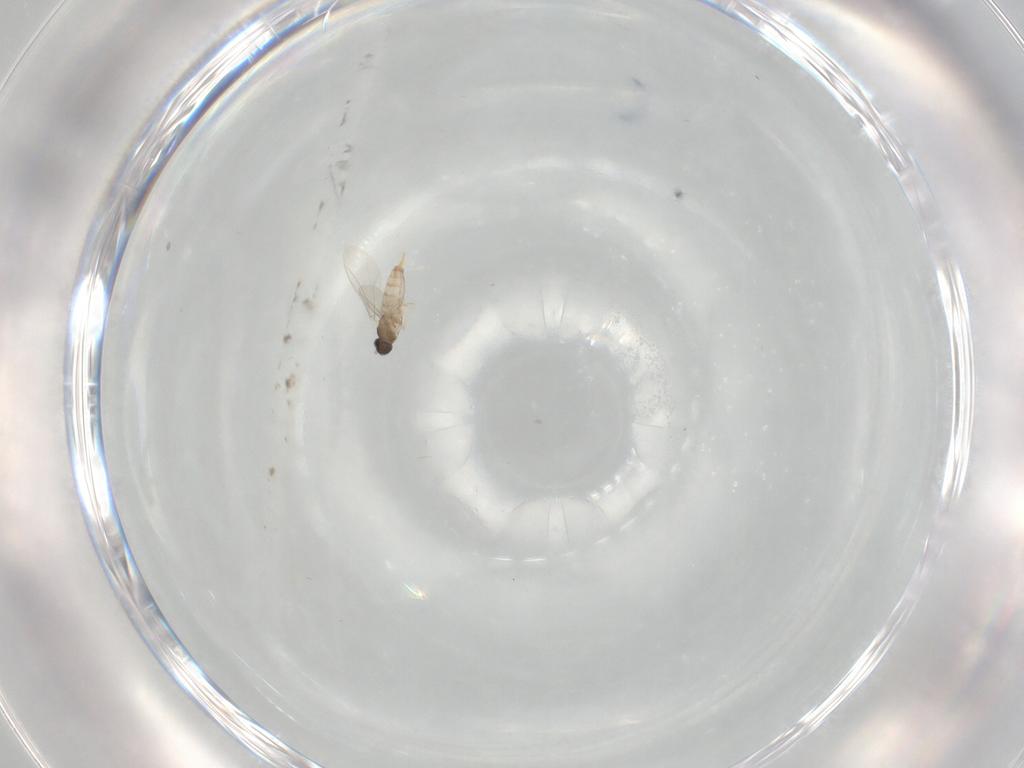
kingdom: Animalia
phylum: Arthropoda
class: Insecta
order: Diptera
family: Cecidomyiidae
